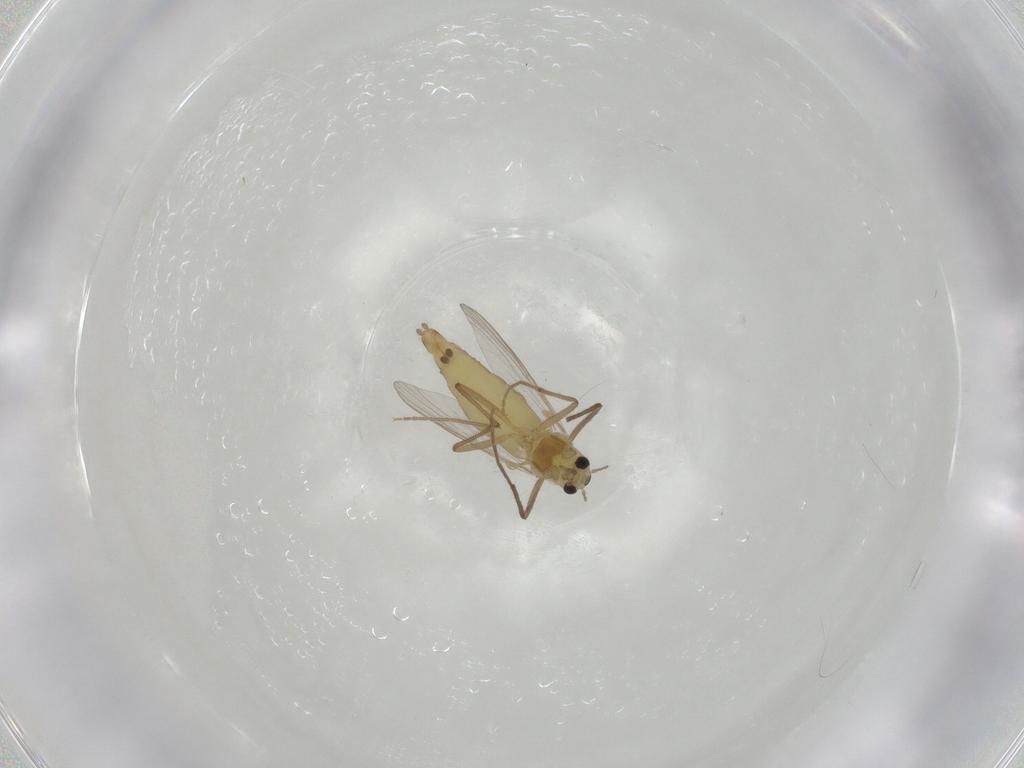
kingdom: Animalia
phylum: Arthropoda
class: Insecta
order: Diptera
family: Chironomidae
